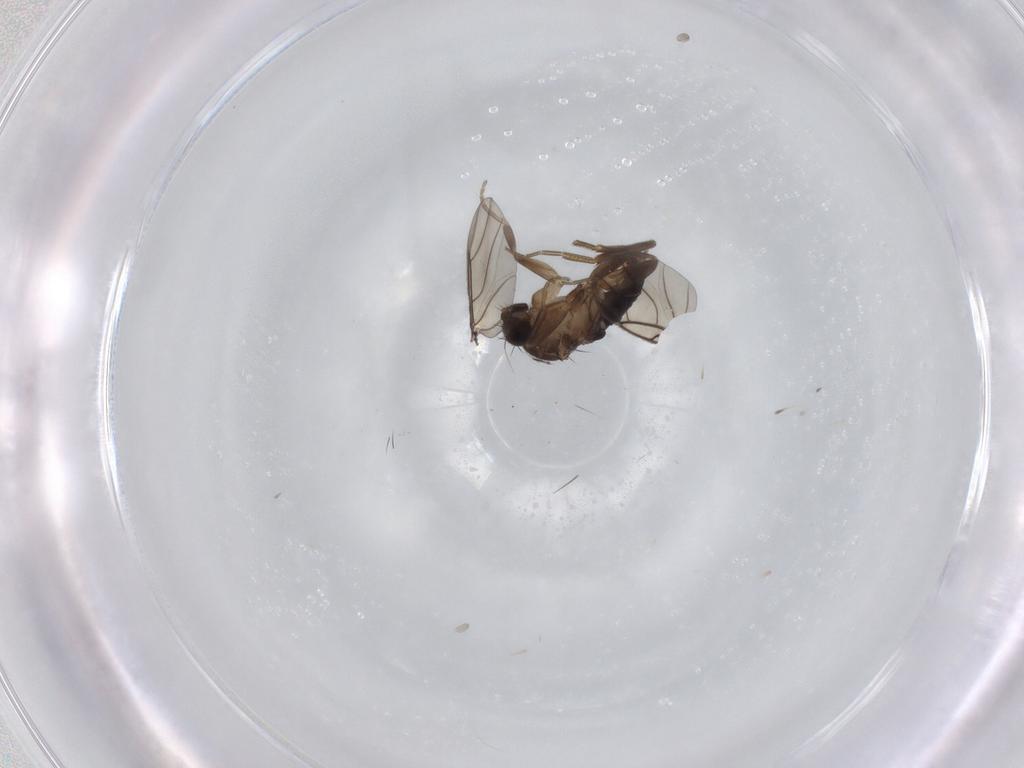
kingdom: Animalia
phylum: Arthropoda
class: Insecta
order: Diptera
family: Phoridae
